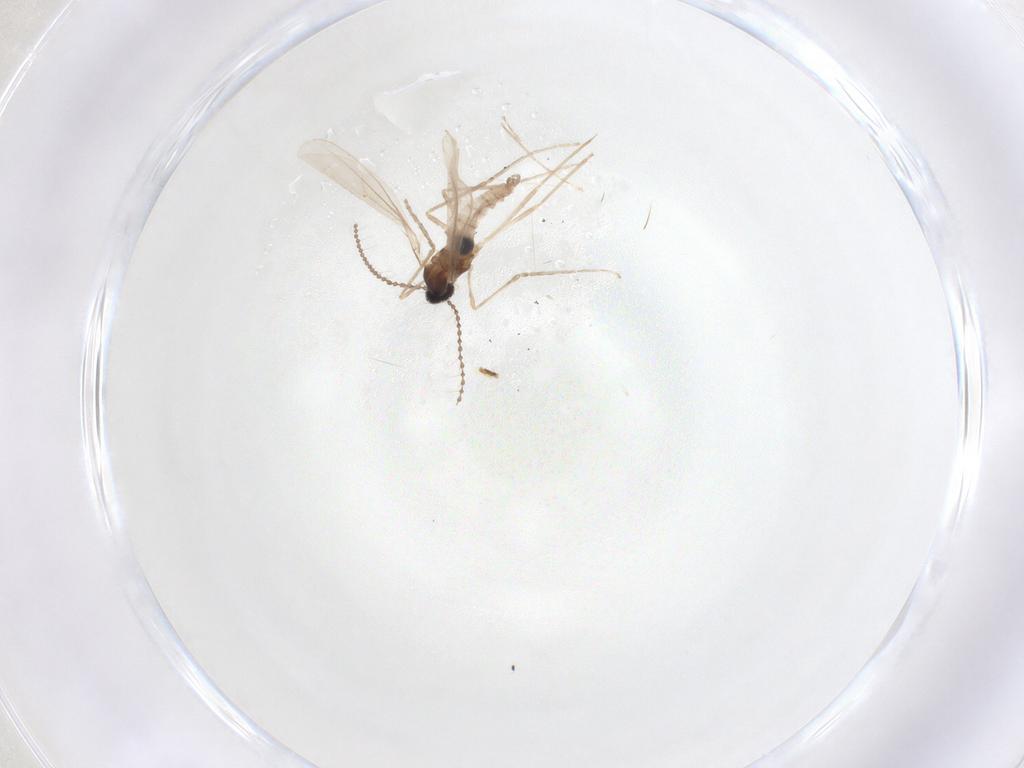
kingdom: Animalia
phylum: Arthropoda
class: Insecta
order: Diptera
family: Cecidomyiidae
